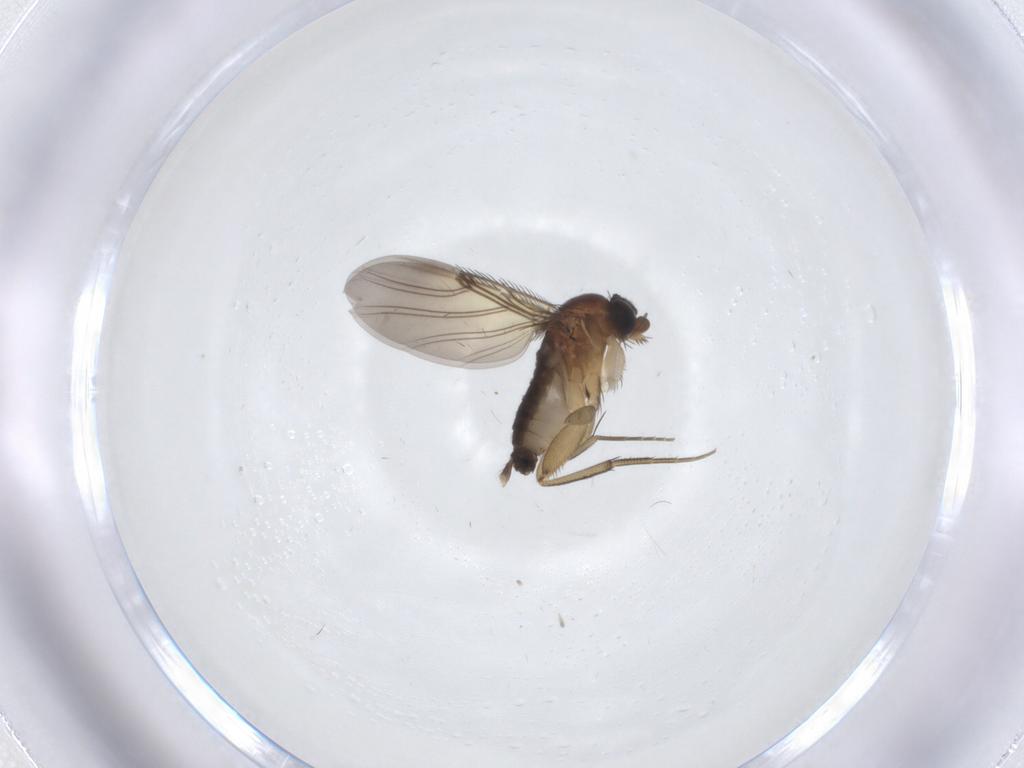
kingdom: Animalia
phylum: Arthropoda
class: Insecta
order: Diptera
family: Phoridae
